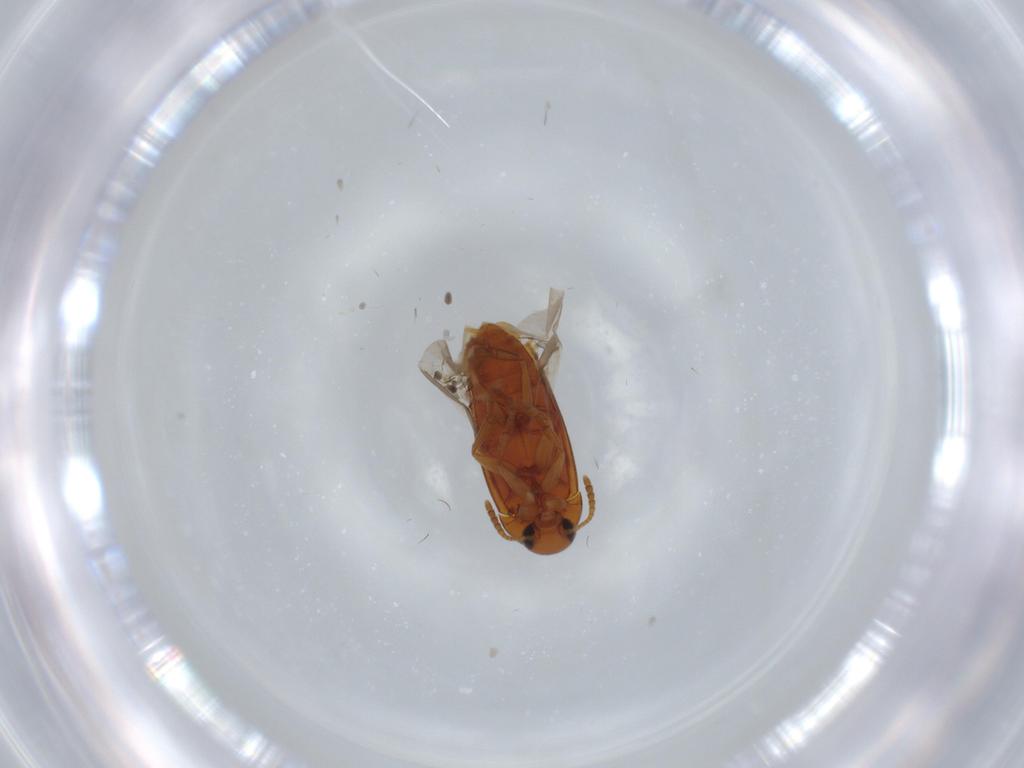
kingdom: Animalia
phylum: Arthropoda
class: Insecta
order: Coleoptera
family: Scraptiidae
